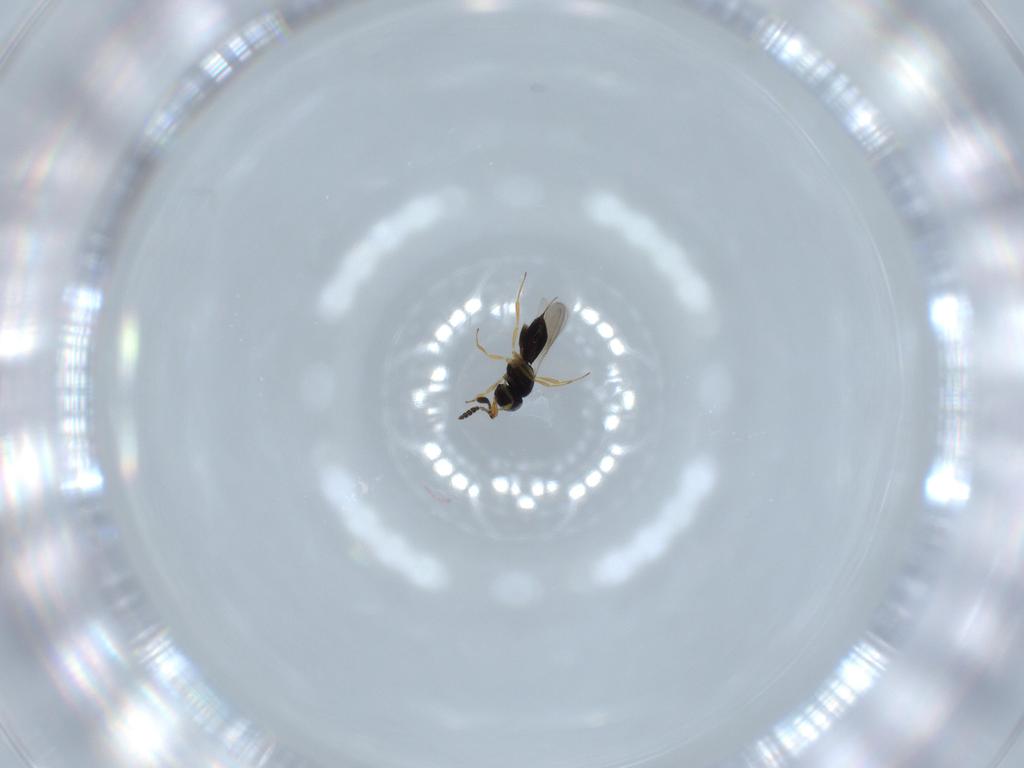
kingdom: Animalia
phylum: Arthropoda
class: Insecta
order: Hymenoptera
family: Scelionidae
